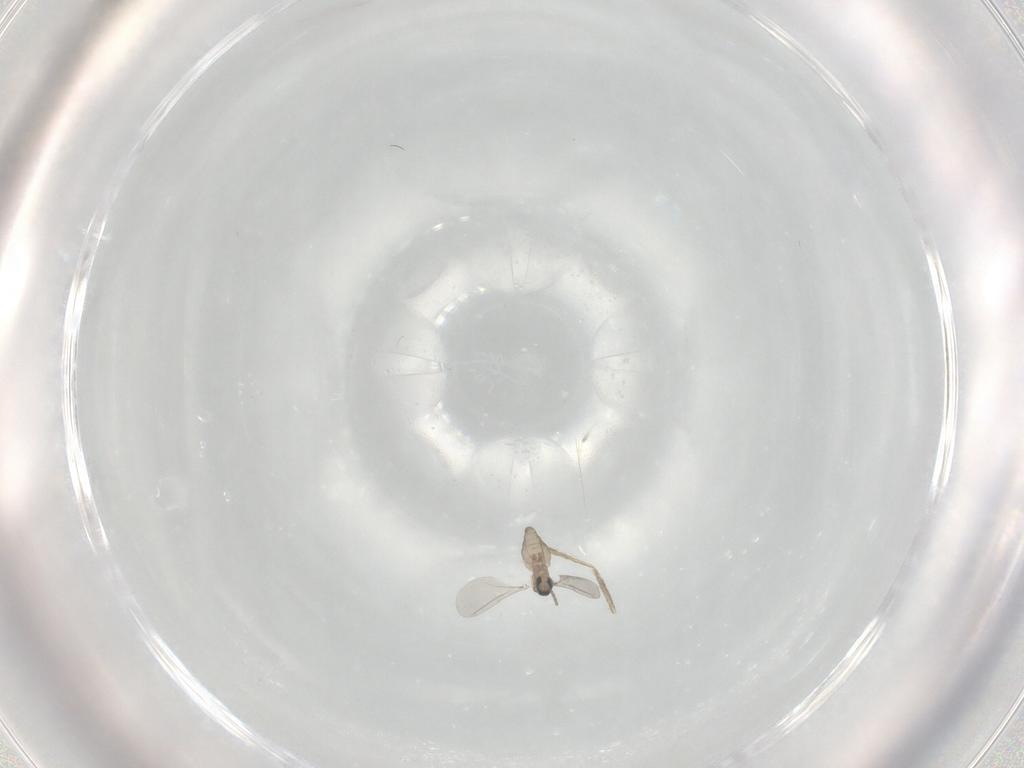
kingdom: Animalia
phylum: Arthropoda
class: Insecta
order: Diptera
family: Cecidomyiidae
